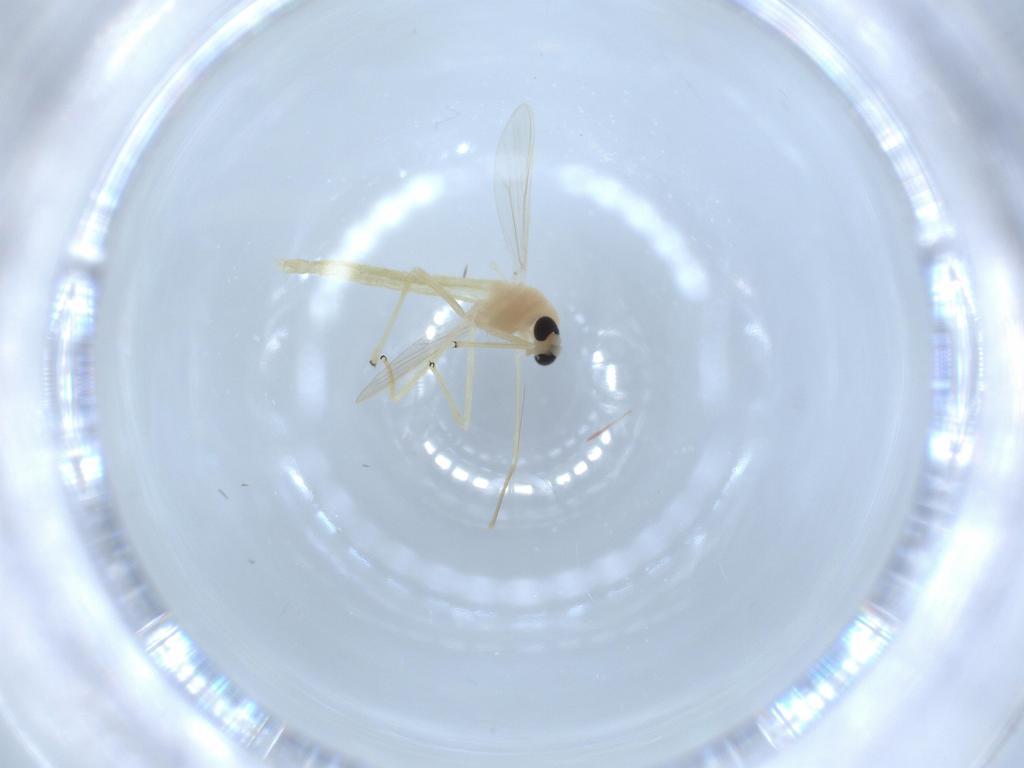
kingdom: Animalia
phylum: Arthropoda
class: Insecta
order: Diptera
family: Chironomidae
